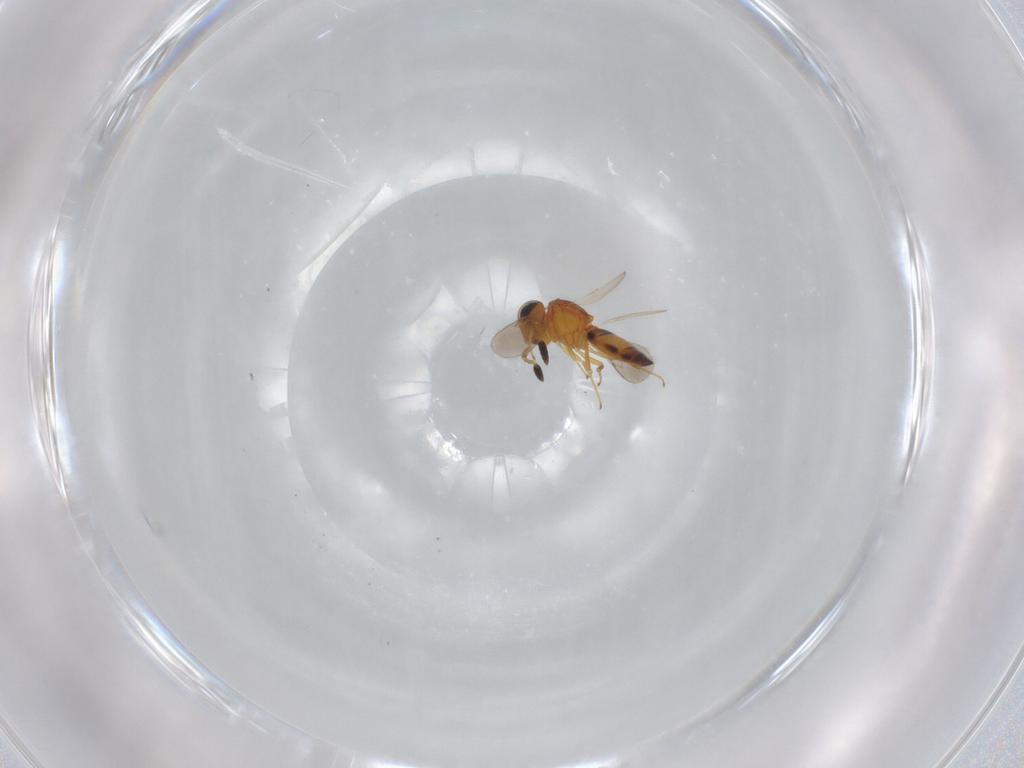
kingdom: Animalia
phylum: Arthropoda
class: Insecta
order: Hymenoptera
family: Scelionidae
